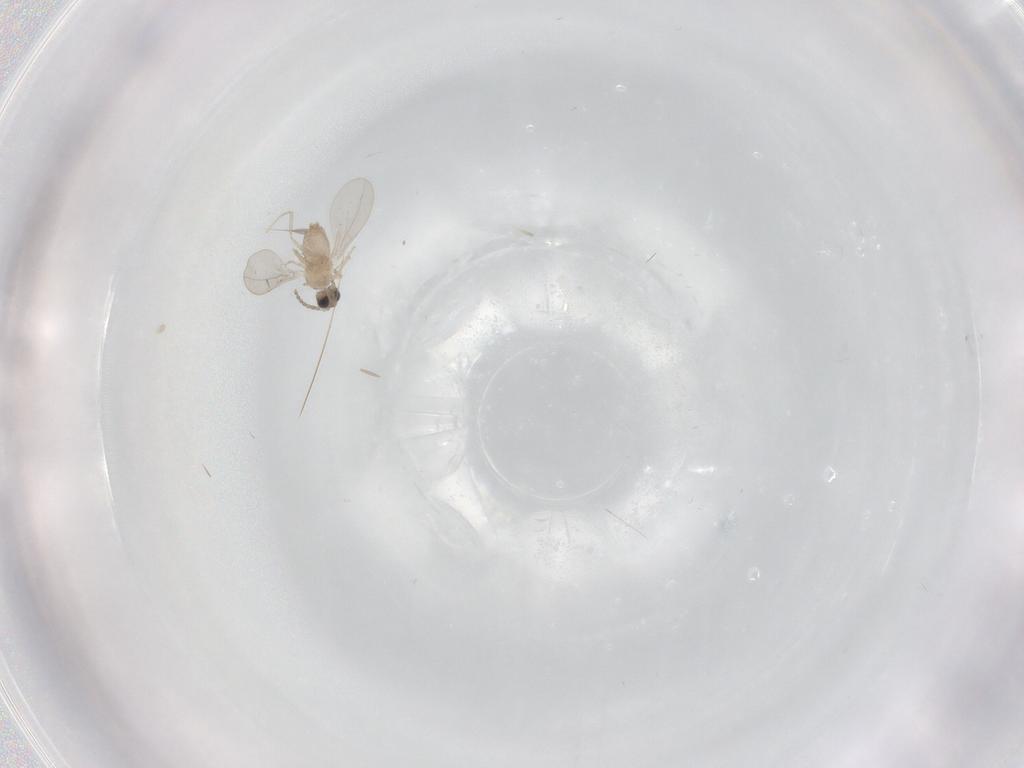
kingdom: Animalia
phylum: Arthropoda
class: Insecta
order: Diptera
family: Cecidomyiidae
